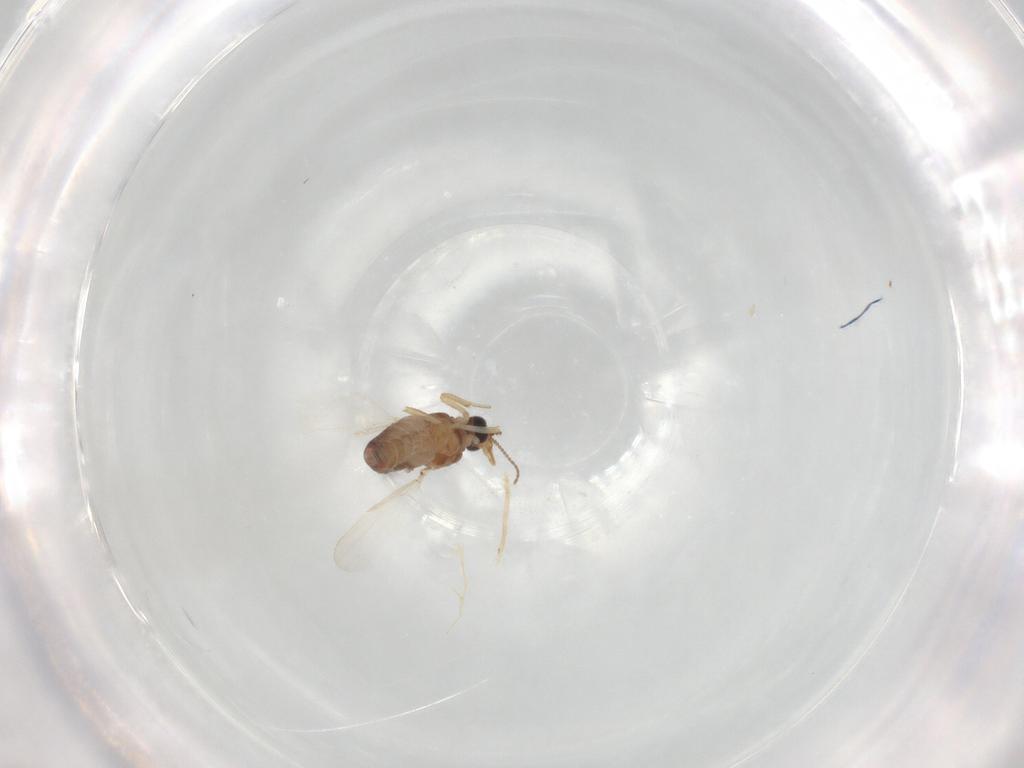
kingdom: Animalia
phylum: Arthropoda
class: Insecta
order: Diptera
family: Ceratopogonidae
